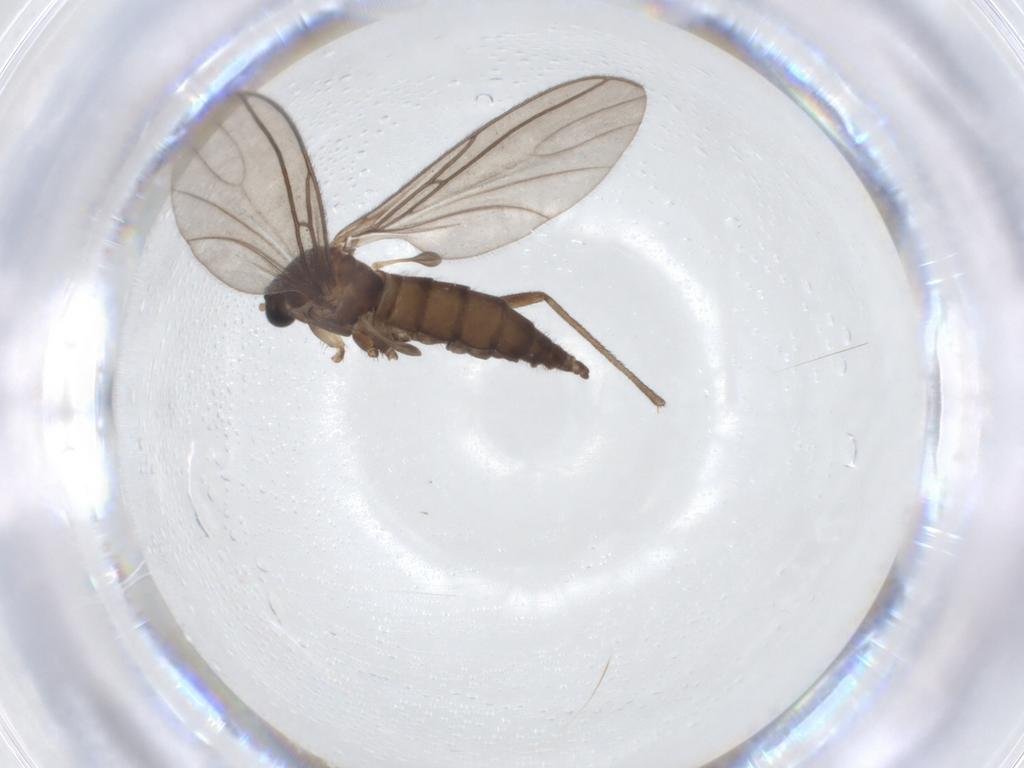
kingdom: Animalia
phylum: Arthropoda
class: Insecta
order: Diptera
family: Sciaridae
